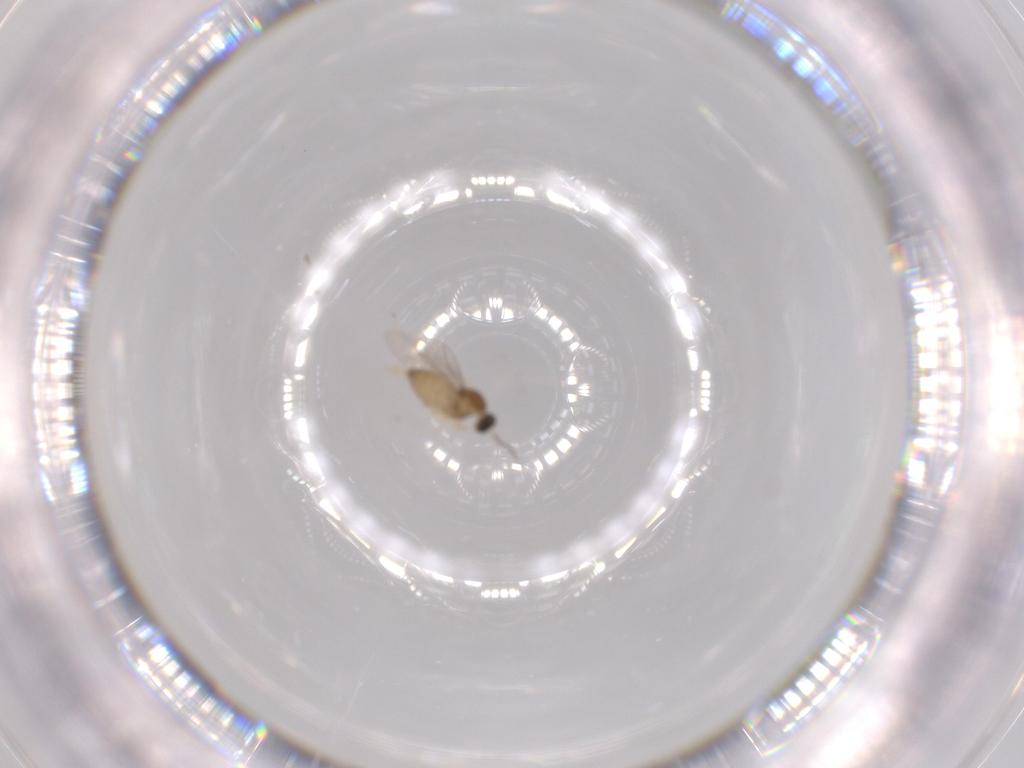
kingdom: Animalia
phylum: Arthropoda
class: Insecta
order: Diptera
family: Cecidomyiidae
